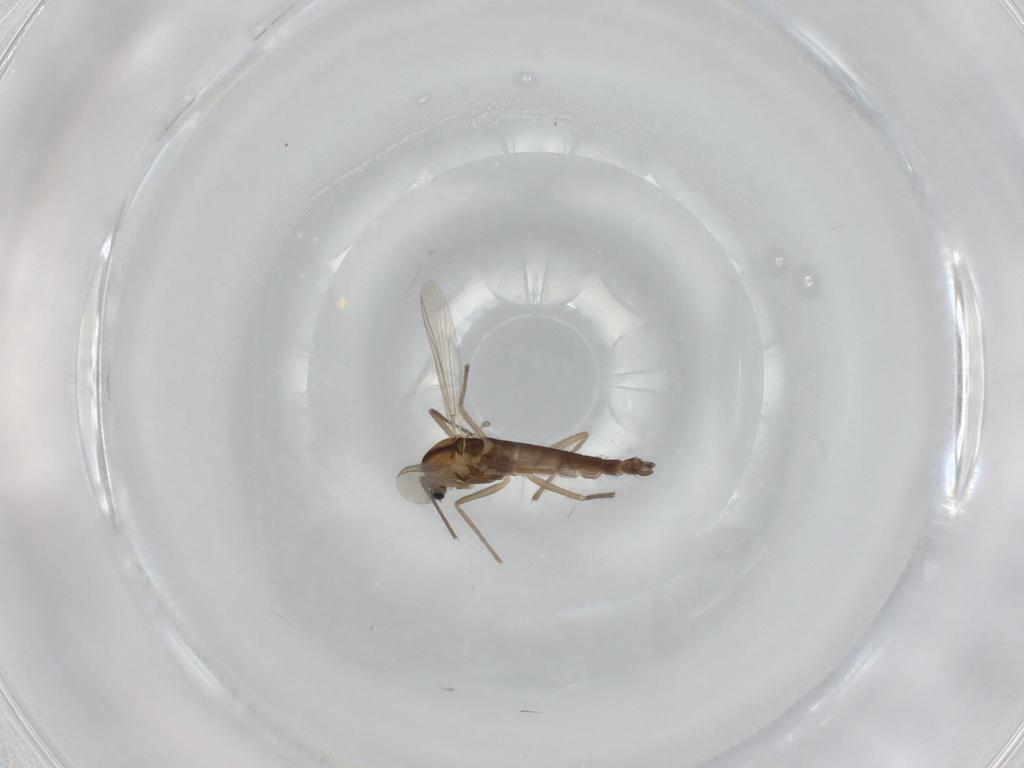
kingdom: Animalia
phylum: Arthropoda
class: Insecta
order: Diptera
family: Chironomidae
